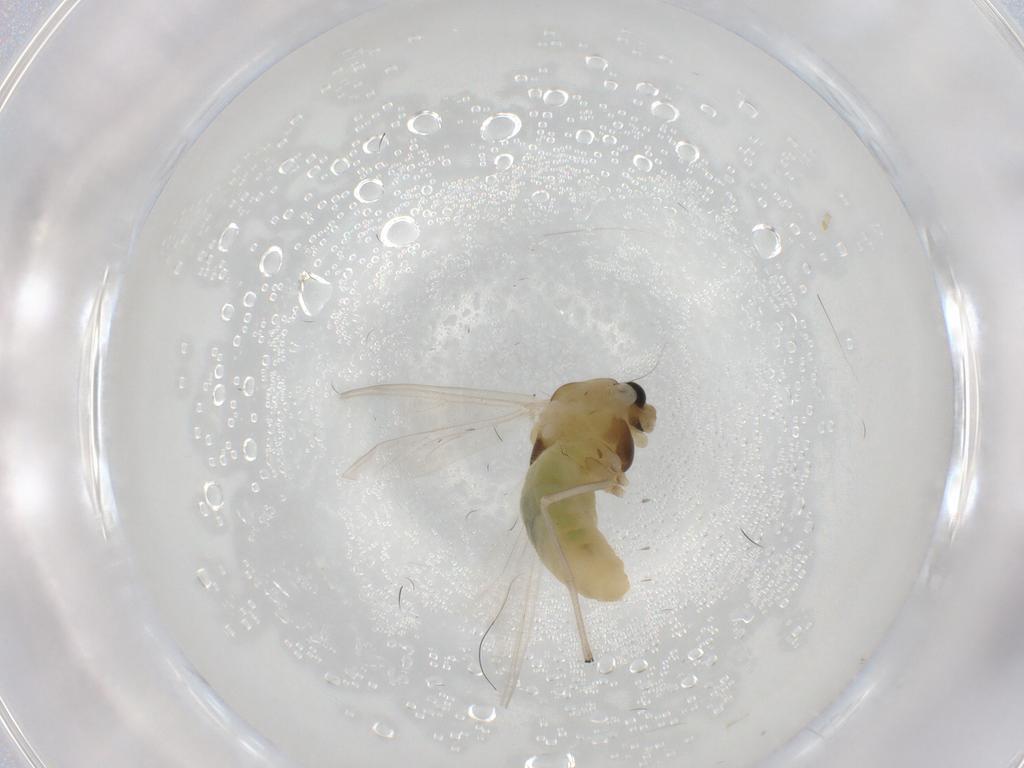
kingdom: Animalia
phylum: Arthropoda
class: Insecta
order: Diptera
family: Chironomidae
